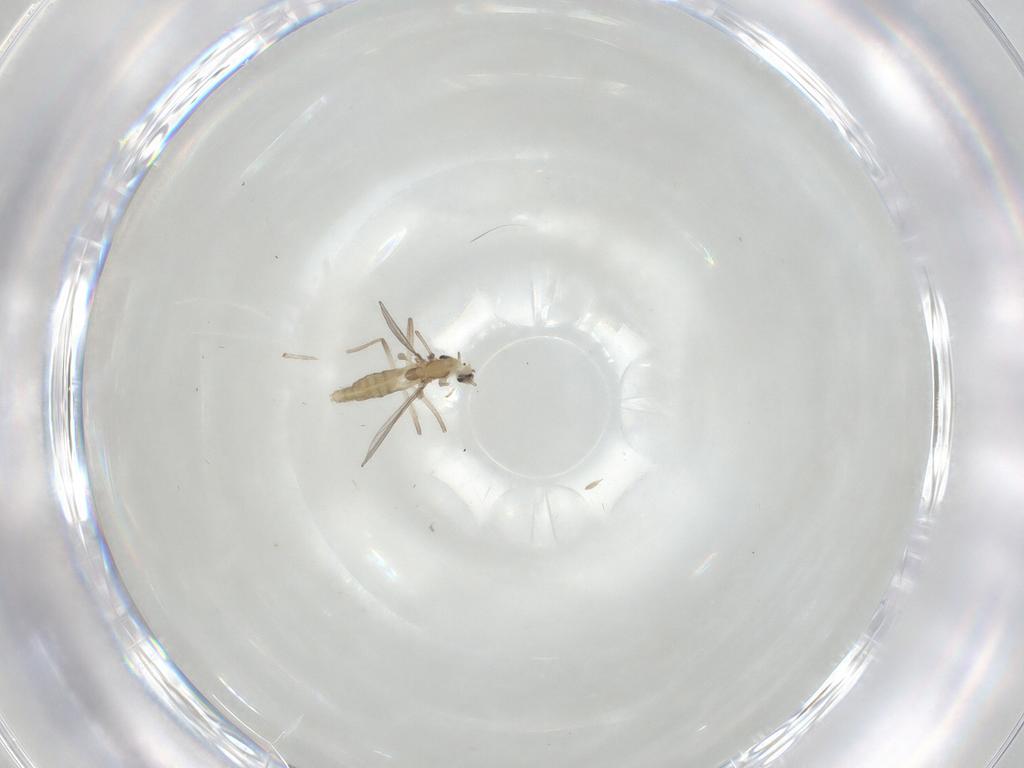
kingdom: Animalia
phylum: Arthropoda
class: Insecta
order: Diptera
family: Chironomidae
